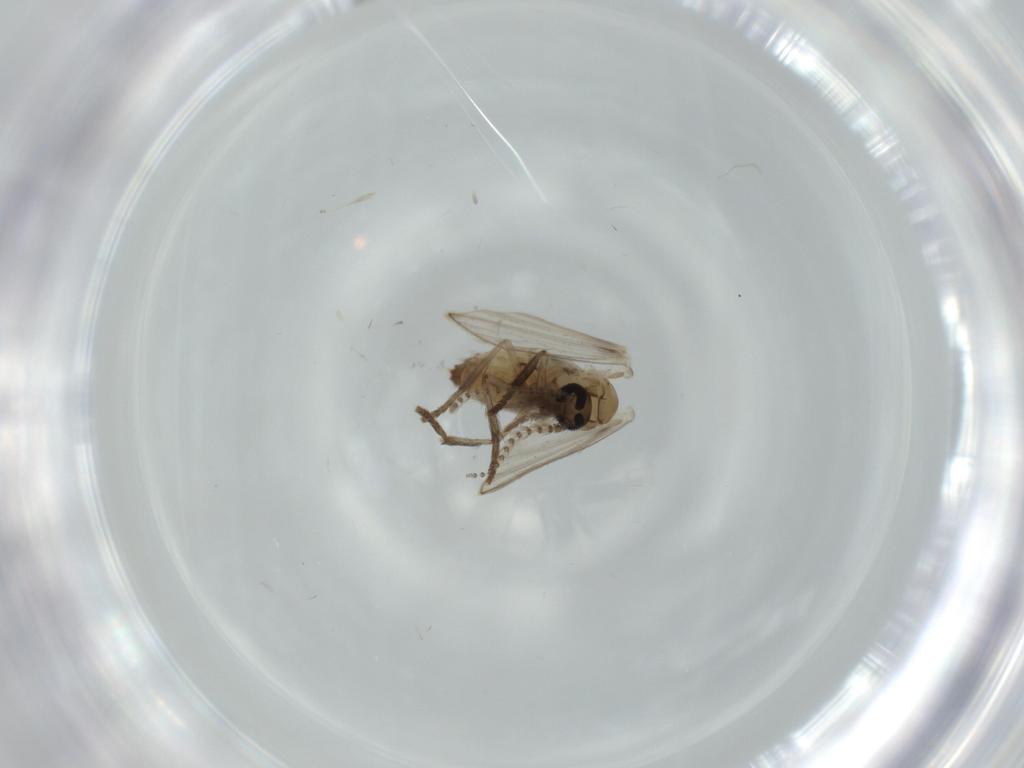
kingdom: Animalia
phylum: Arthropoda
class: Insecta
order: Diptera
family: Psychodidae
